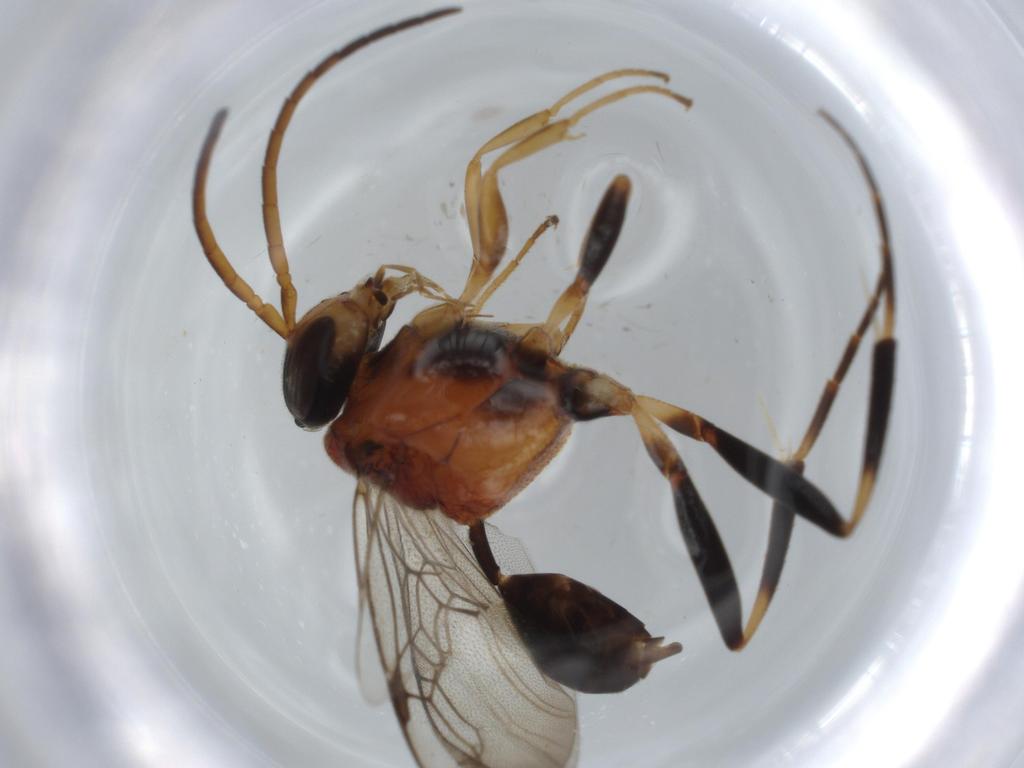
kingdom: Animalia
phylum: Arthropoda
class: Insecta
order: Hymenoptera
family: Evaniidae
